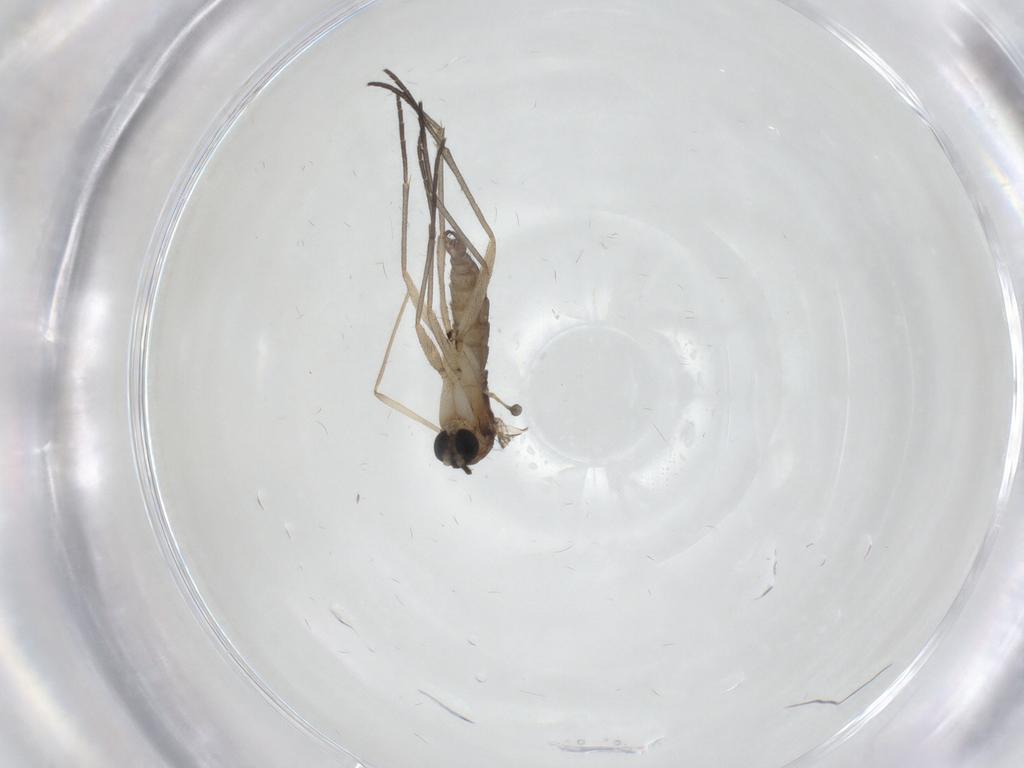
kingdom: Animalia
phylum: Arthropoda
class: Insecta
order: Diptera
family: Sciaridae
